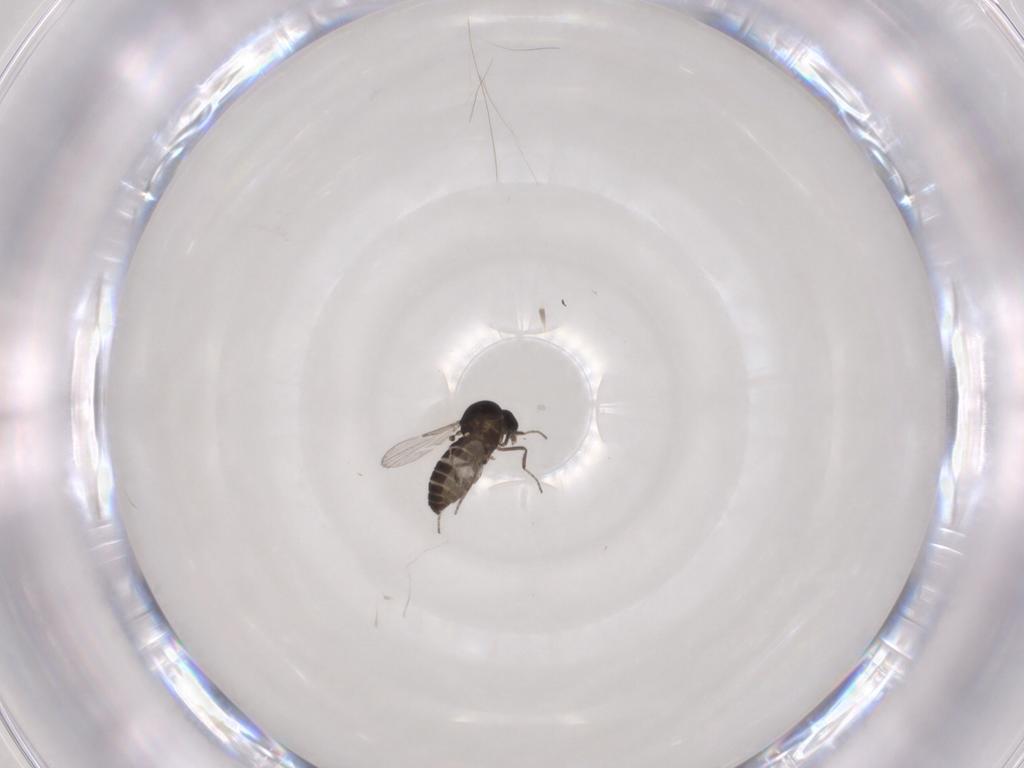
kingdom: Animalia
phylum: Arthropoda
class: Insecta
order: Diptera
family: Ceratopogonidae
